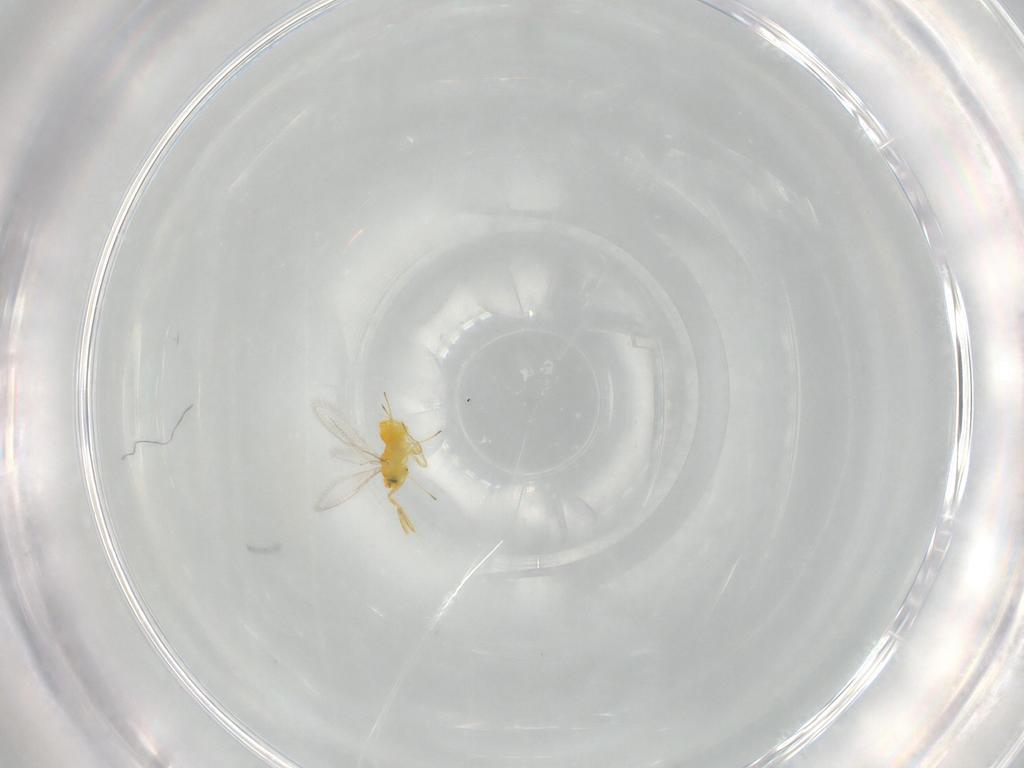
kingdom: Animalia
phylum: Arthropoda
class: Insecta
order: Hymenoptera
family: Aphelinidae
